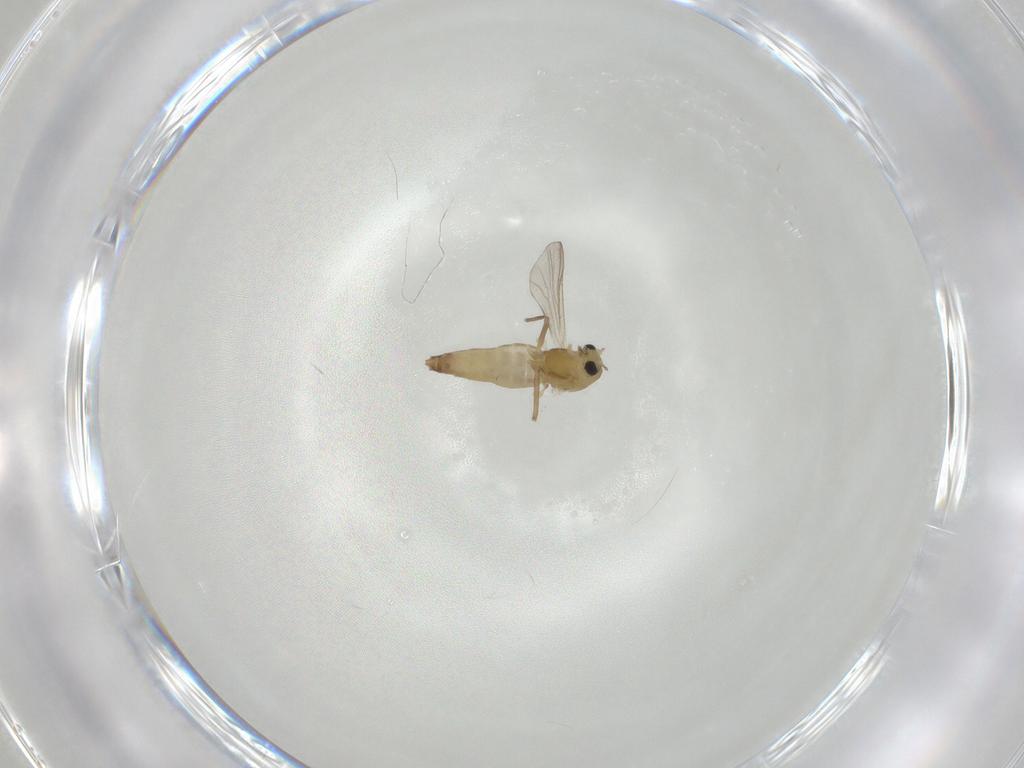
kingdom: Animalia
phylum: Arthropoda
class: Insecta
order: Diptera
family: Chironomidae
